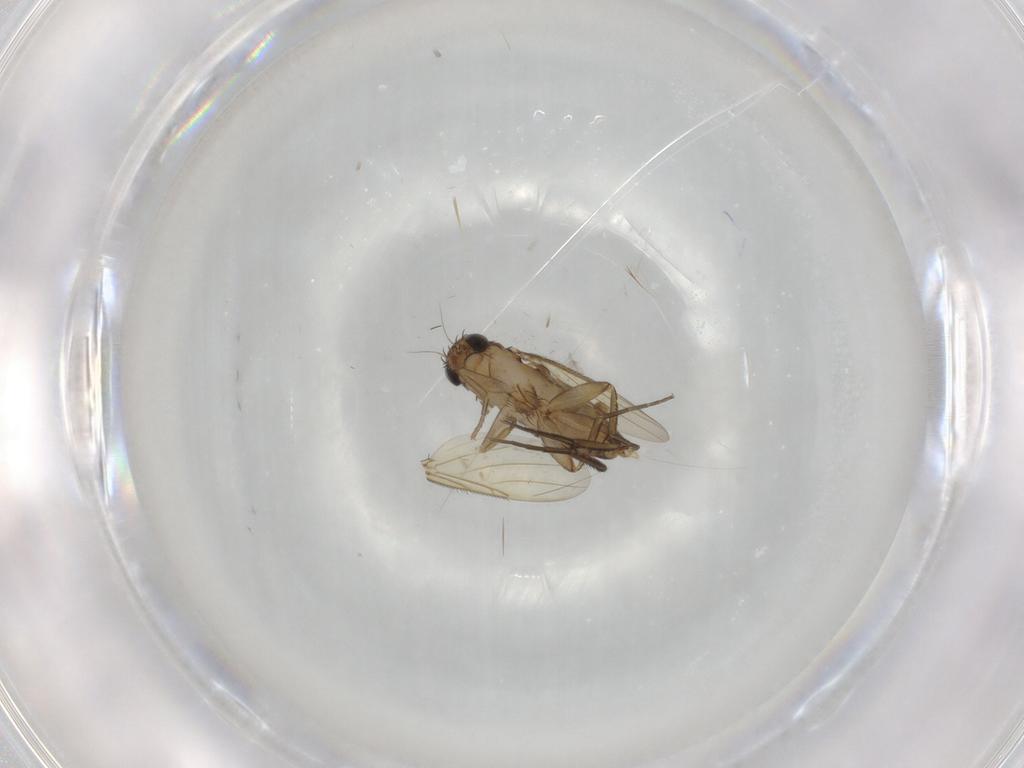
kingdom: Animalia
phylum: Arthropoda
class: Insecta
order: Diptera
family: Phoridae
